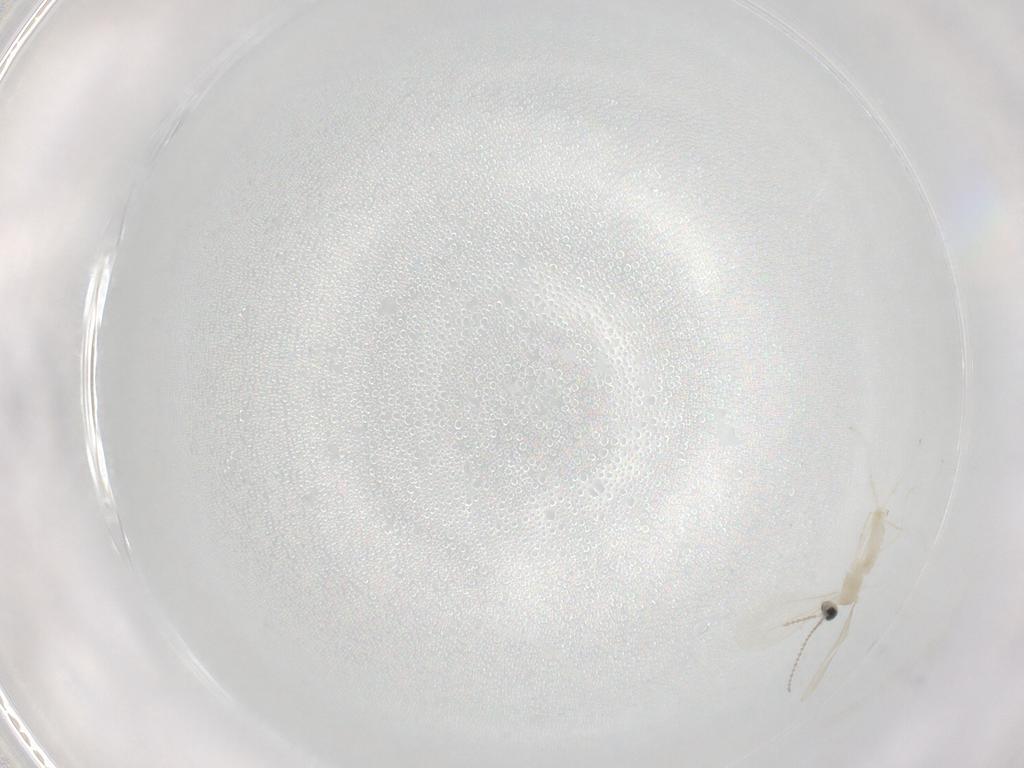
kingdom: Animalia
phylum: Arthropoda
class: Insecta
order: Diptera
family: Cecidomyiidae
